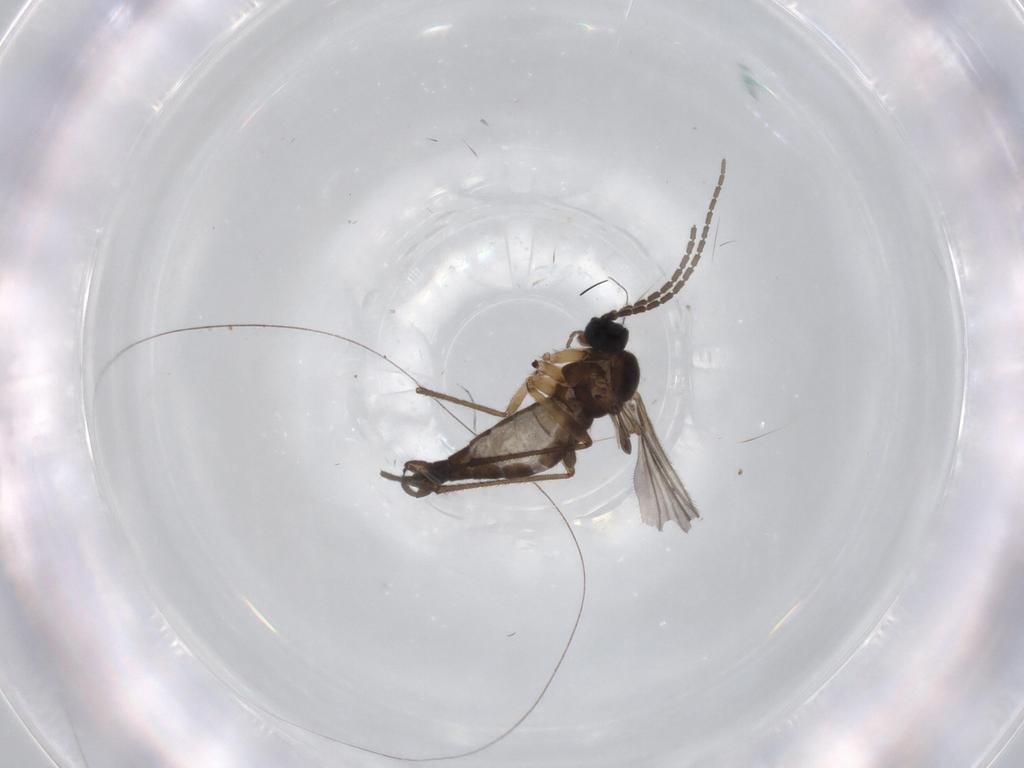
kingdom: Animalia
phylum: Arthropoda
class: Insecta
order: Diptera
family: Sciaridae
